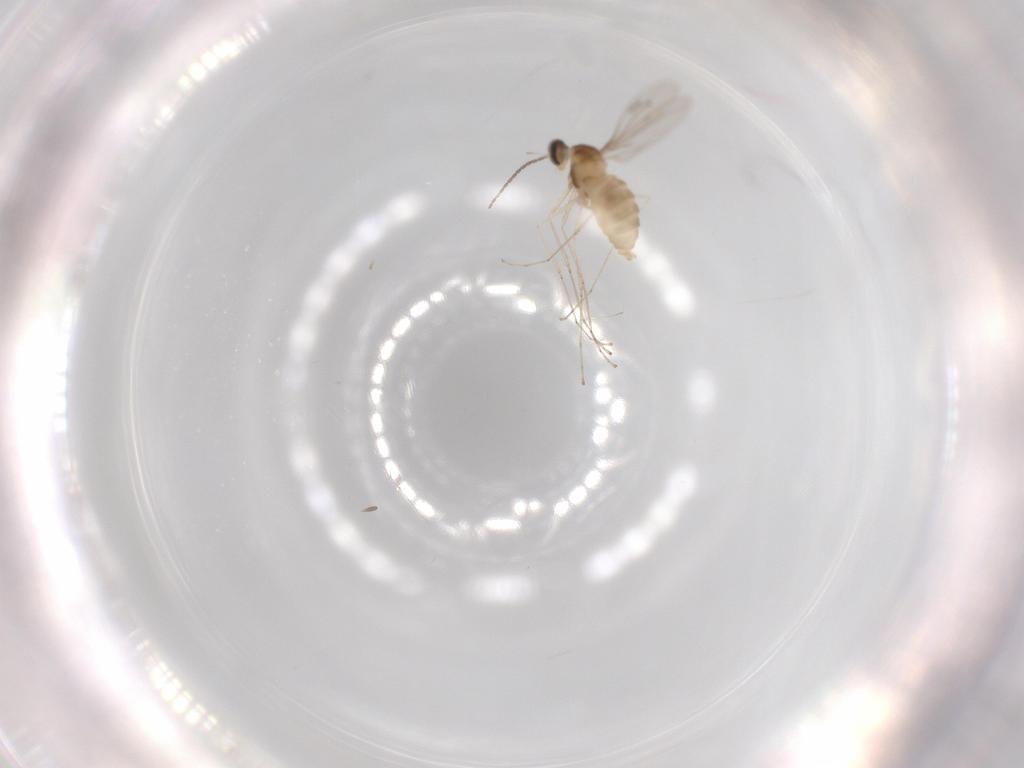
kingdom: Animalia
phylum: Arthropoda
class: Insecta
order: Diptera
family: Cecidomyiidae
